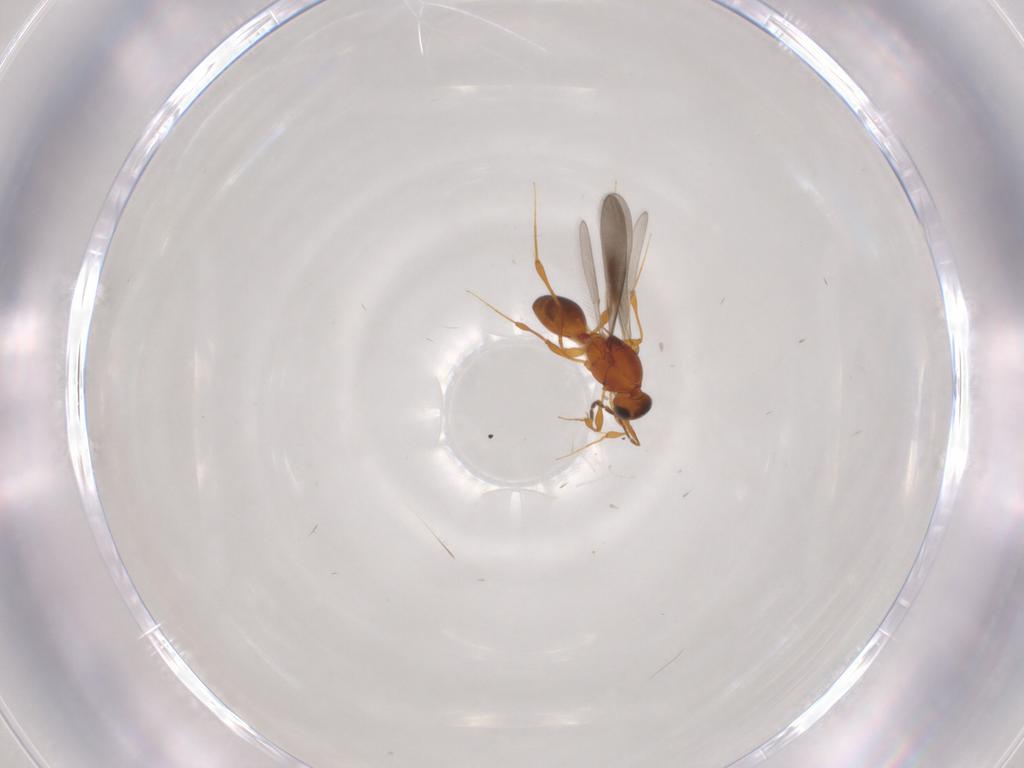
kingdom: Animalia
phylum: Arthropoda
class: Insecta
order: Hymenoptera
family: Platygastridae
